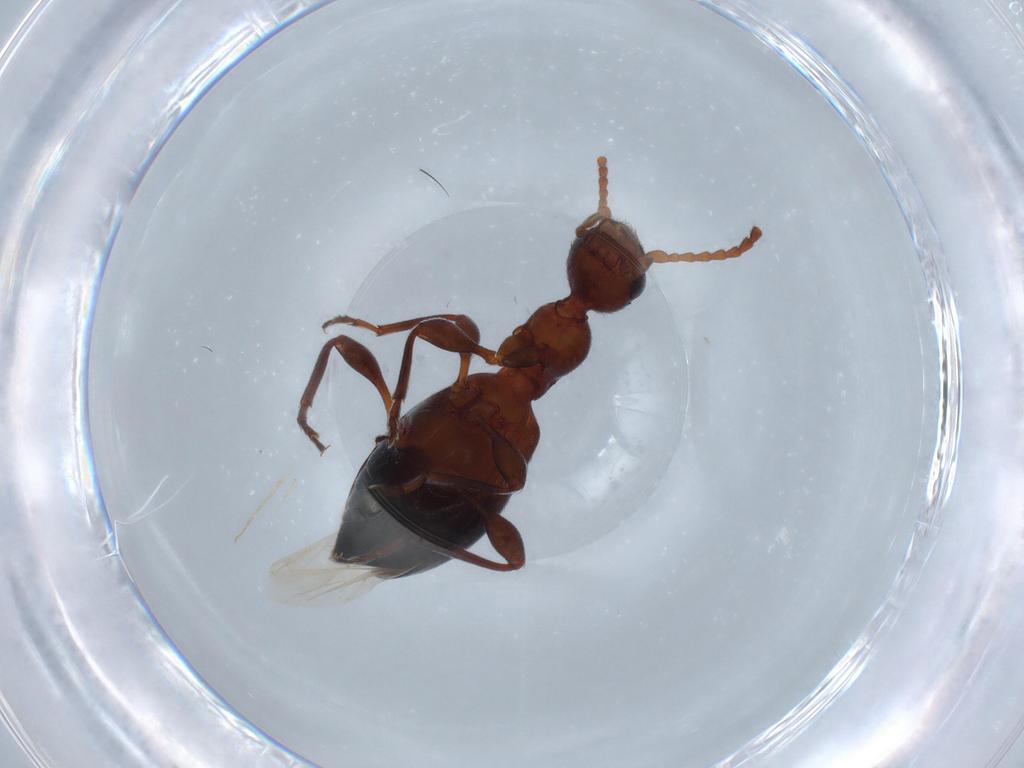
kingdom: Animalia
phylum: Arthropoda
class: Insecta
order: Coleoptera
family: Anthicidae
